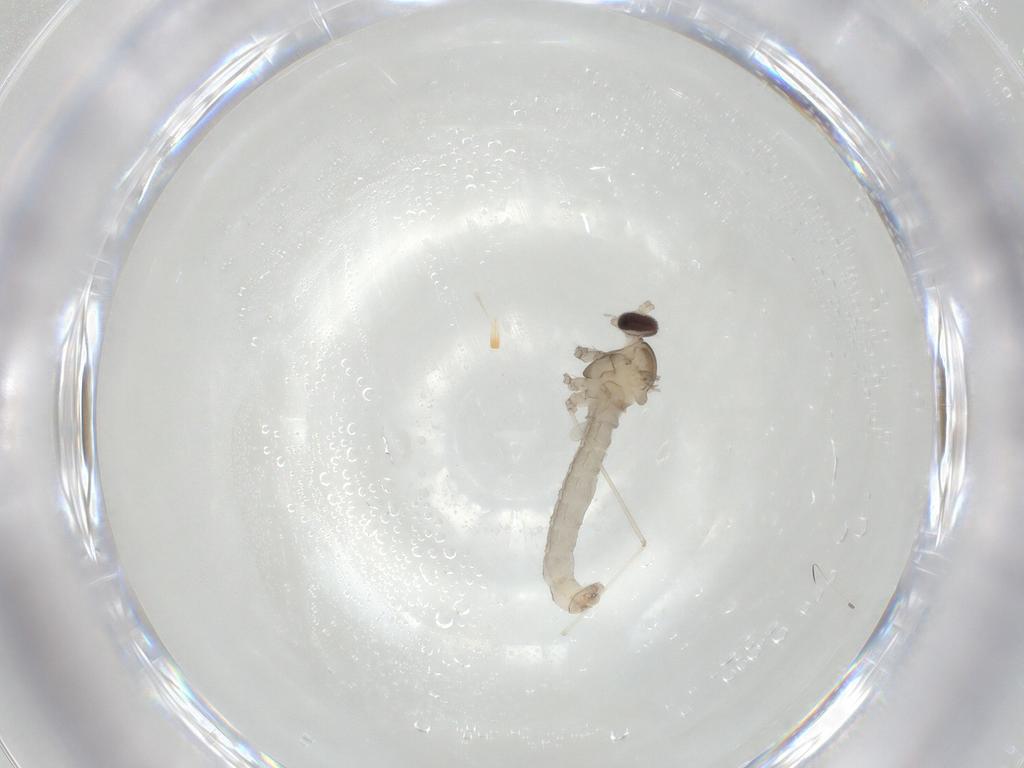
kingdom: Animalia
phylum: Arthropoda
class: Insecta
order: Diptera
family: Cecidomyiidae
